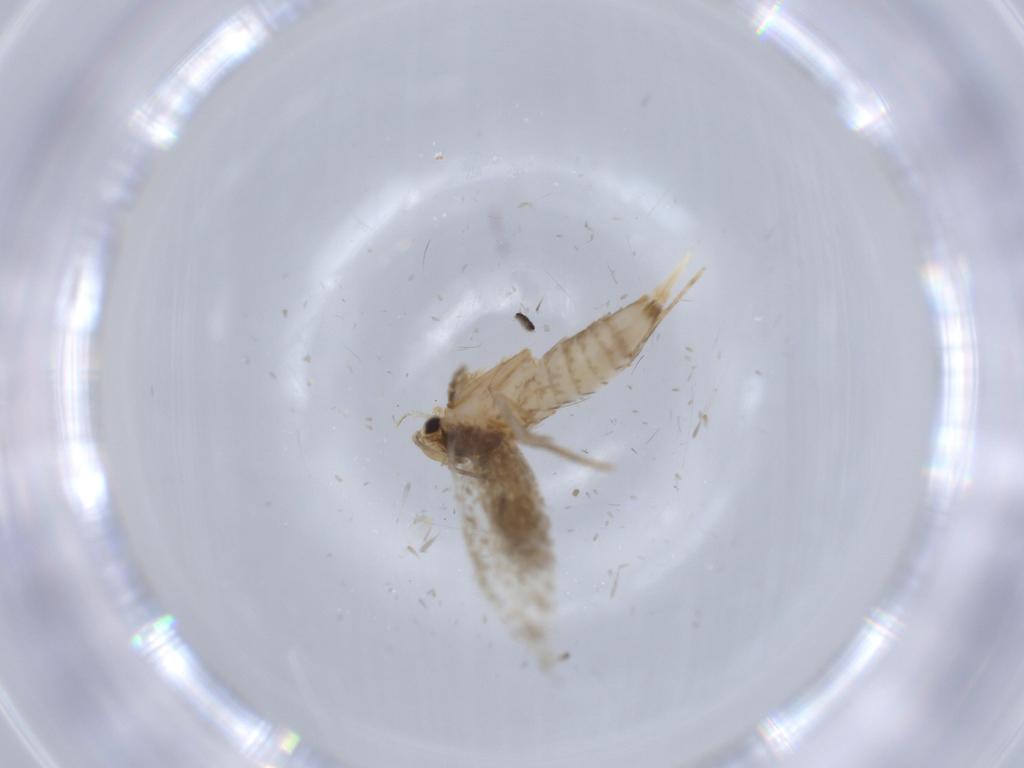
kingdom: Animalia
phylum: Arthropoda
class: Insecta
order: Lepidoptera
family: Tineidae
